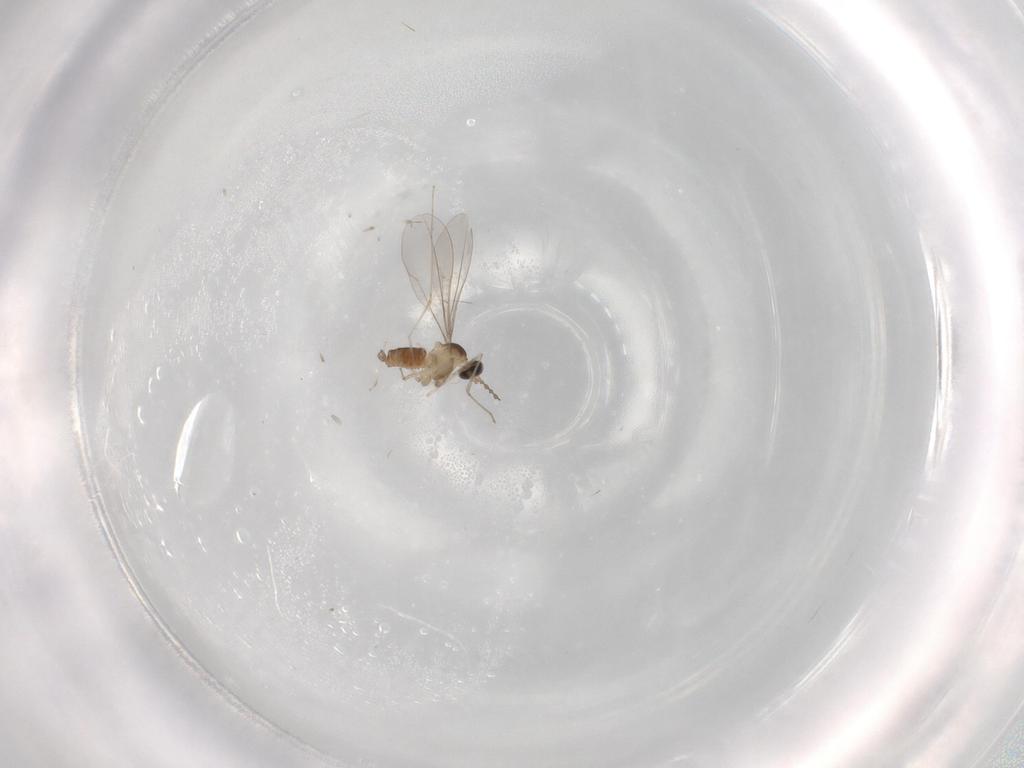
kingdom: Animalia
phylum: Arthropoda
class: Insecta
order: Diptera
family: Cecidomyiidae
